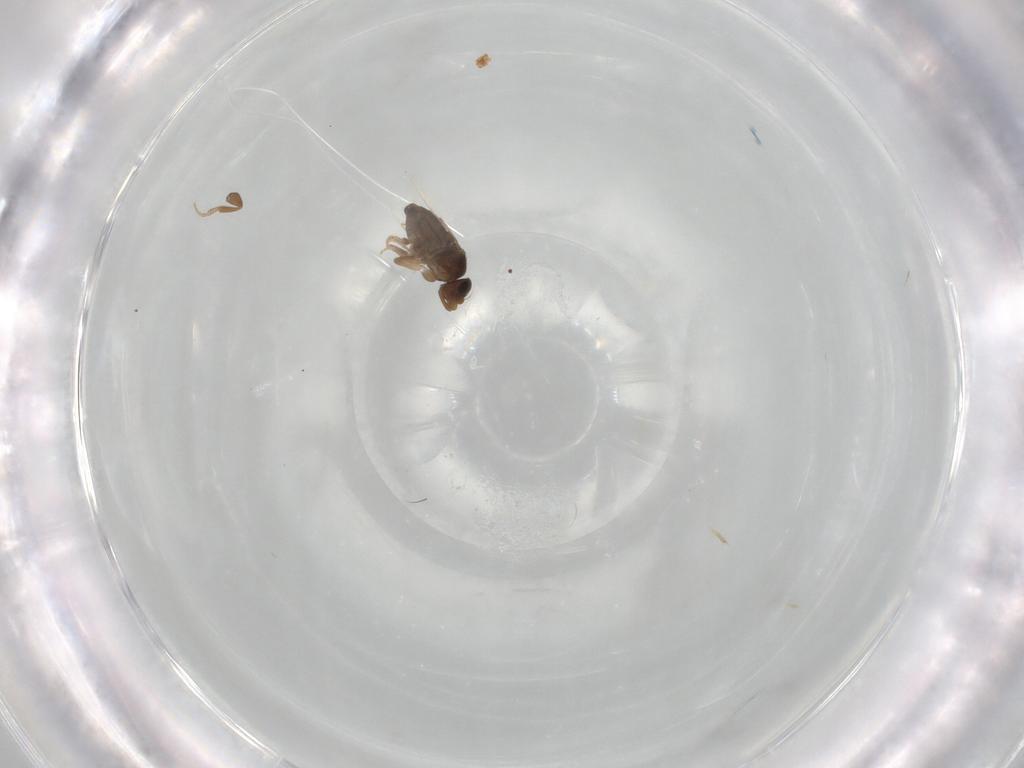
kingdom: Animalia
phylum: Arthropoda
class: Insecta
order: Diptera
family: Phoridae
